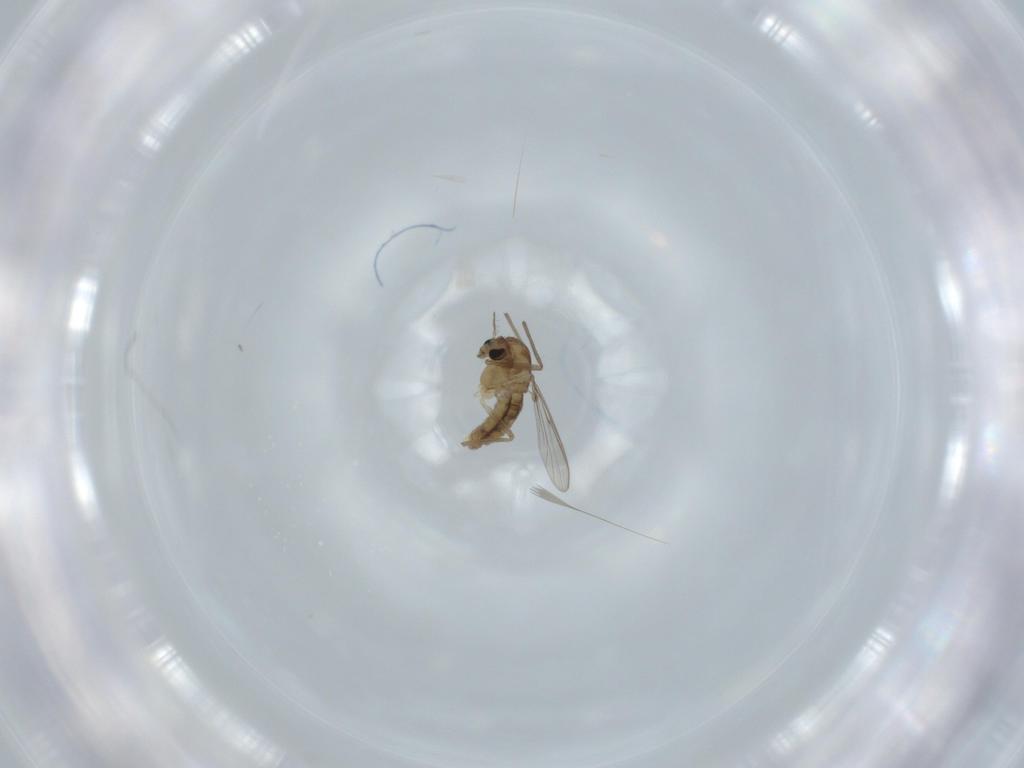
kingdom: Animalia
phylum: Arthropoda
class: Insecta
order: Diptera
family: Chironomidae
